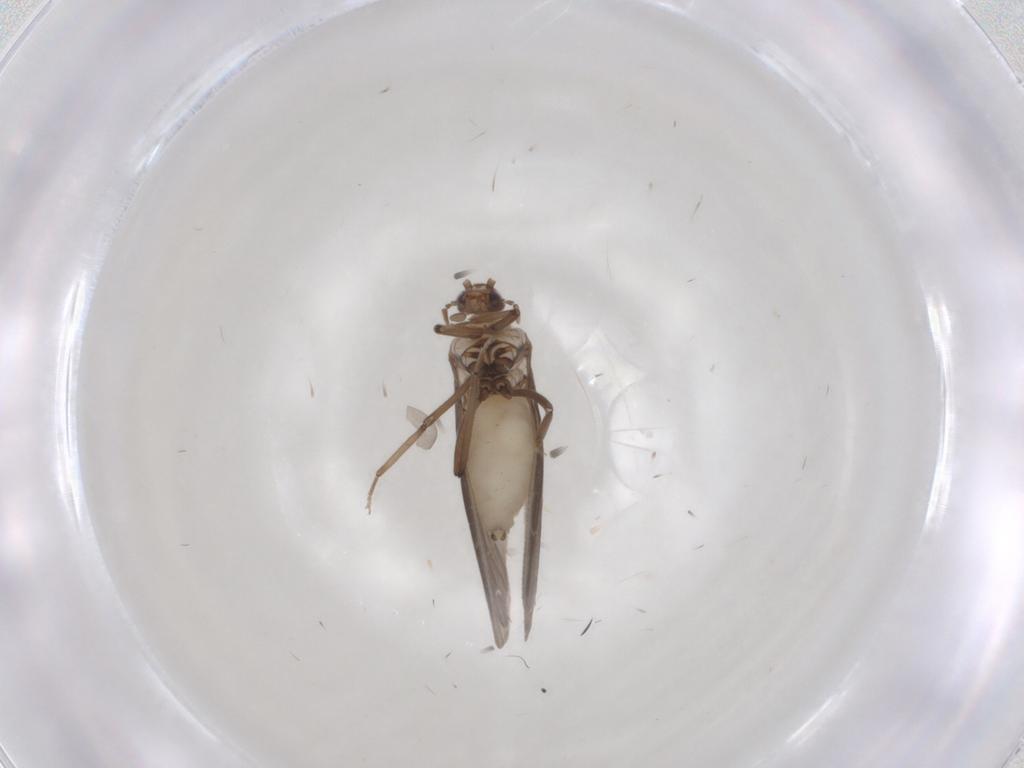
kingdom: Animalia
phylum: Arthropoda
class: Insecta
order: Neuroptera
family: Coniopterygidae
